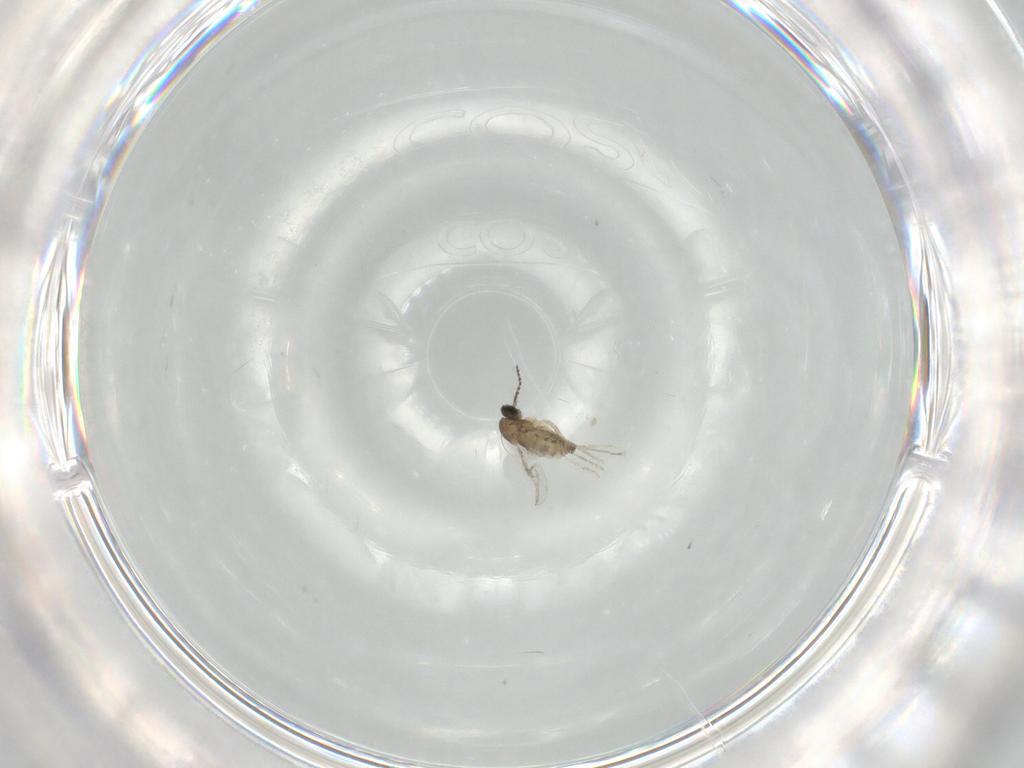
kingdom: Animalia
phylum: Arthropoda
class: Insecta
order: Diptera
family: Cecidomyiidae
